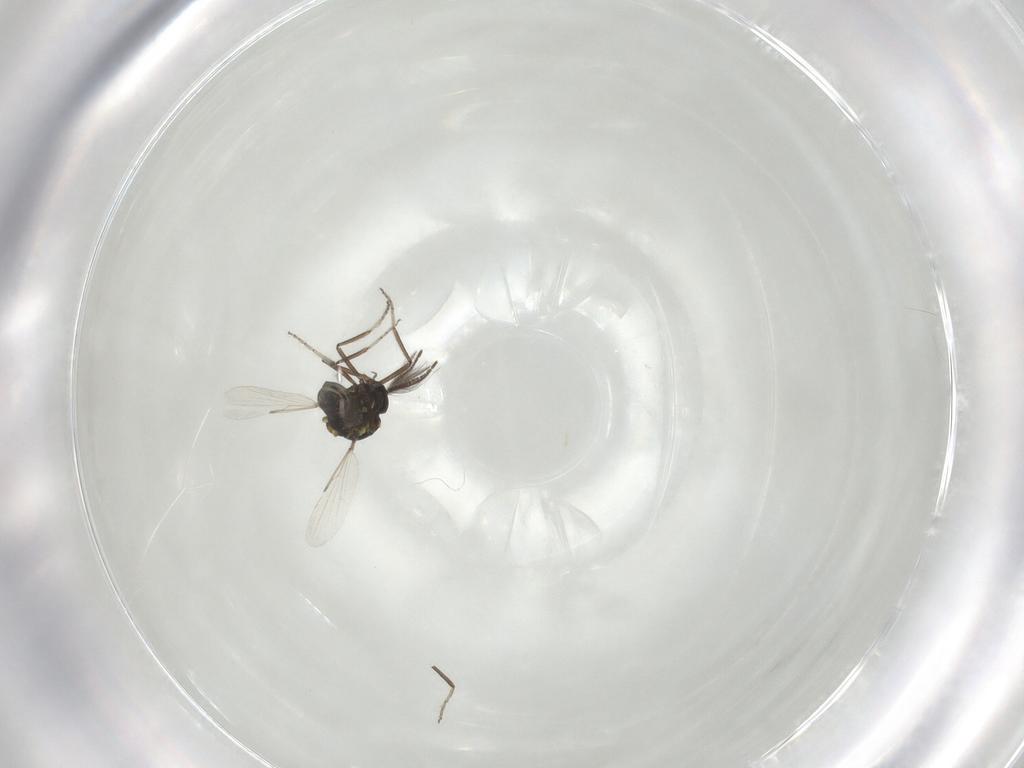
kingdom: Animalia
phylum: Arthropoda
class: Insecta
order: Diptera
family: Ceratopogonidae
